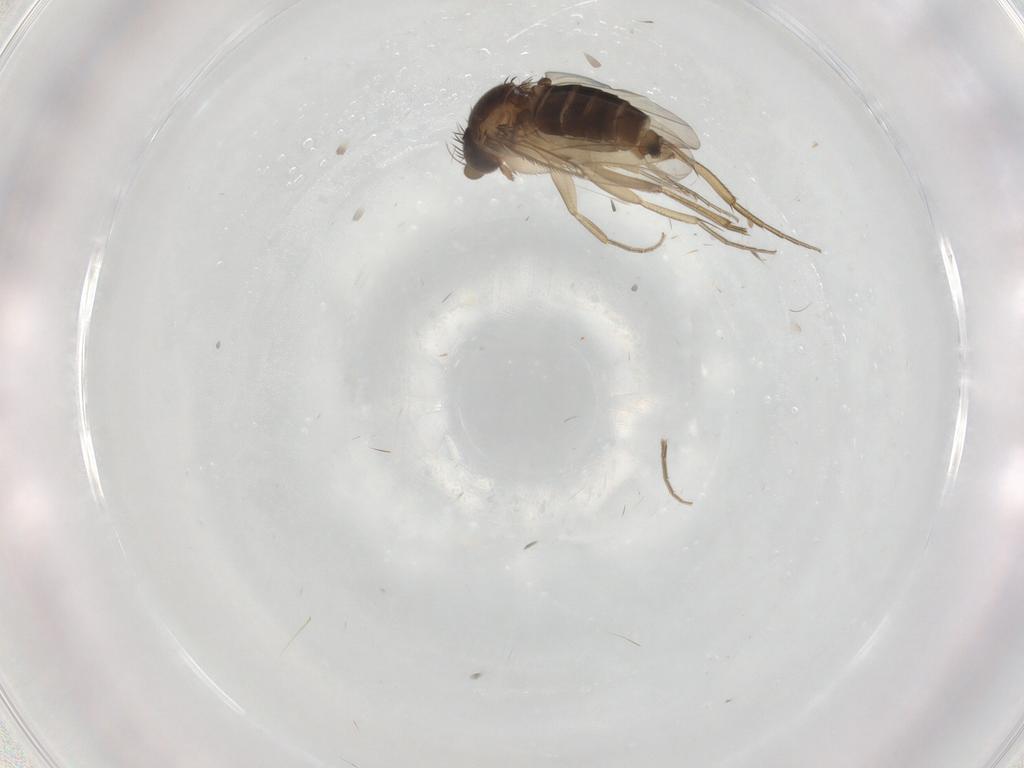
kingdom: Animalia
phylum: Arthropoda
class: Insecta
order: Diptera
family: Phoridae
